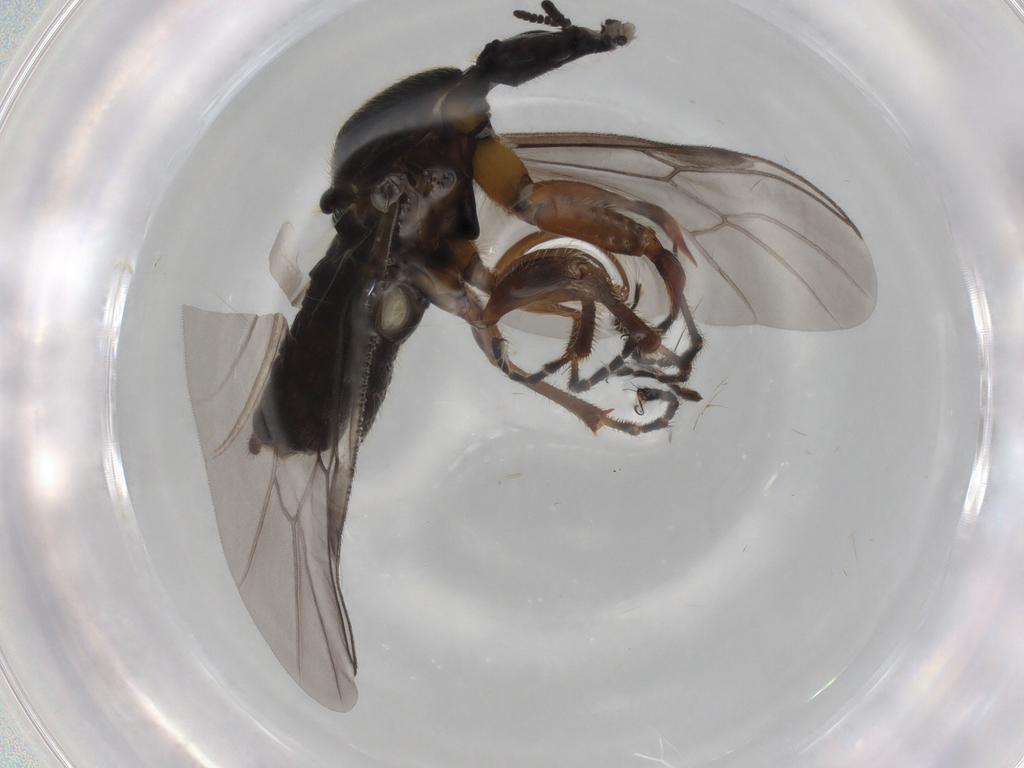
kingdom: Animalia
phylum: Arthropoda
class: Insecta
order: Diptera
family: Bibionidae
